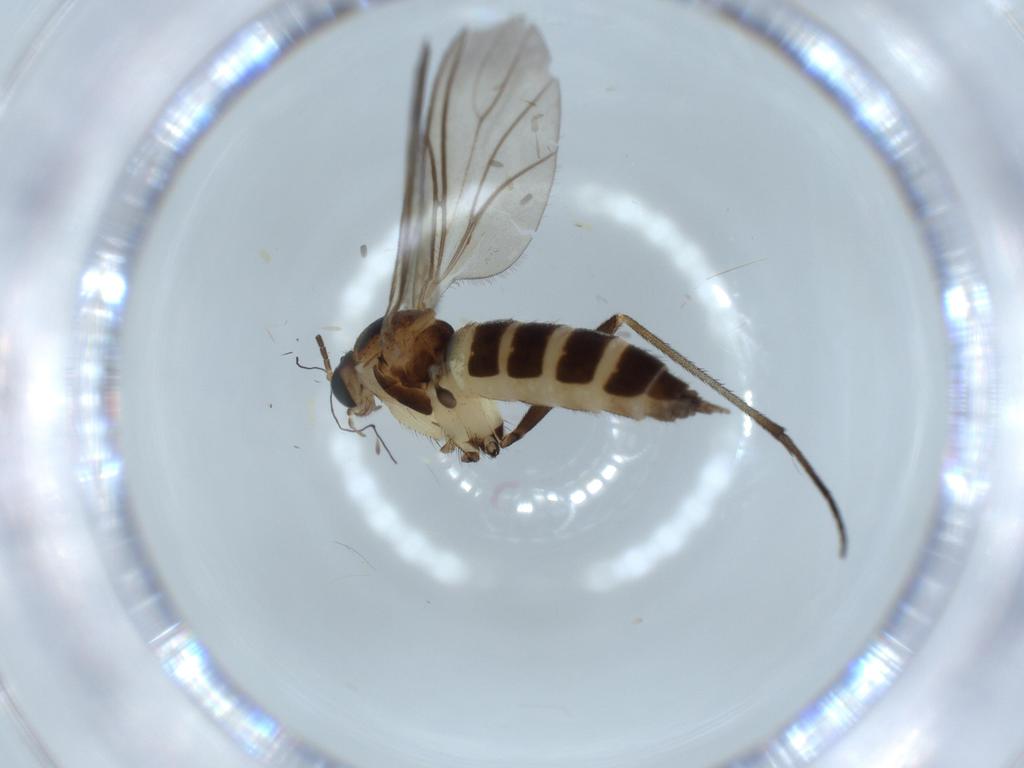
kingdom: Animalia
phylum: Arthropoda
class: Insecta
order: Diptera
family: Sciaridae
